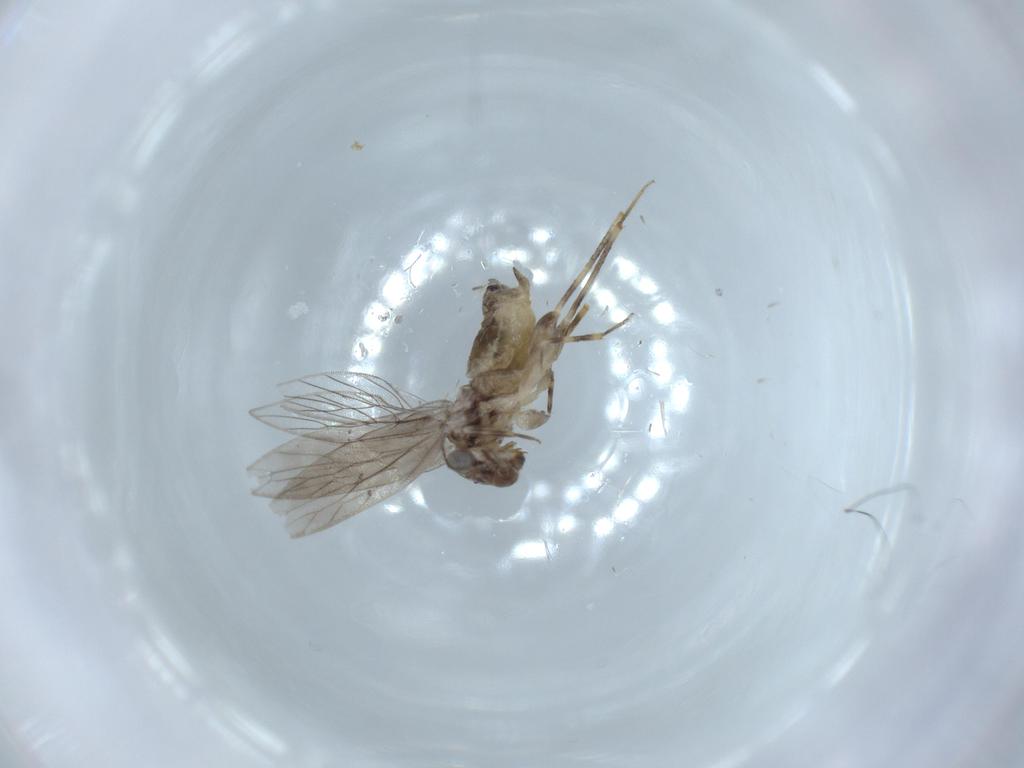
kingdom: Animalia
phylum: Arthropoda
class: Insecta
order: Psocodea
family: Lepidopsocidae
